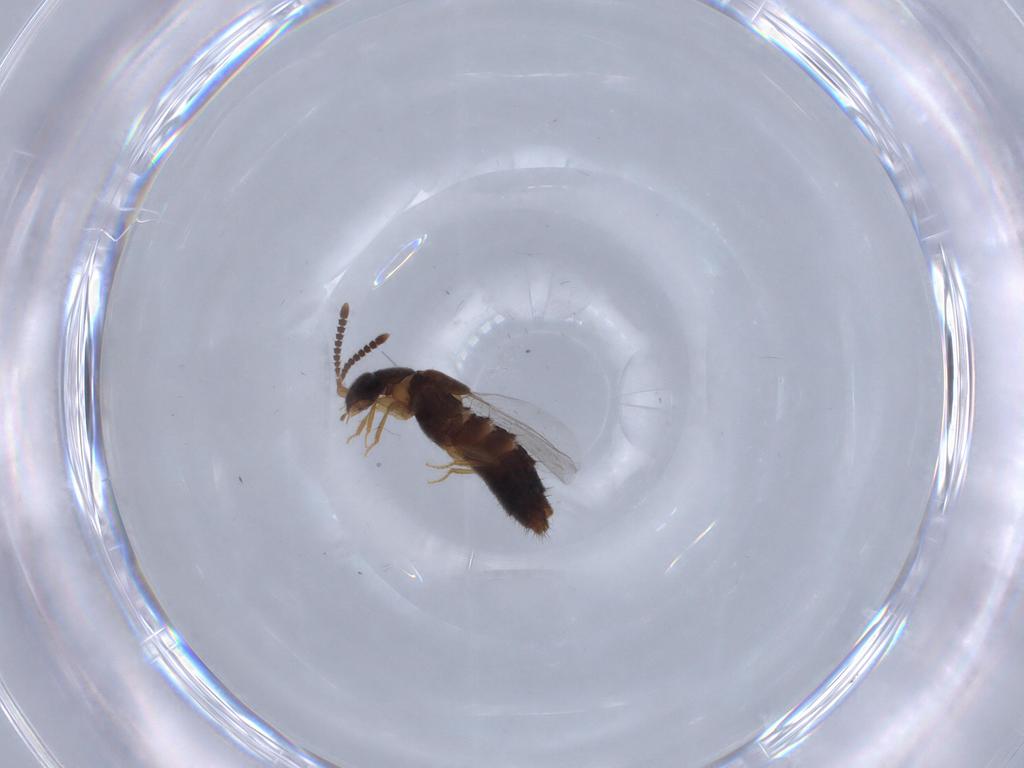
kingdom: Animalia
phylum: Arthropoda
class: Insecta
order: Coleoptera
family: Staphylinidae
